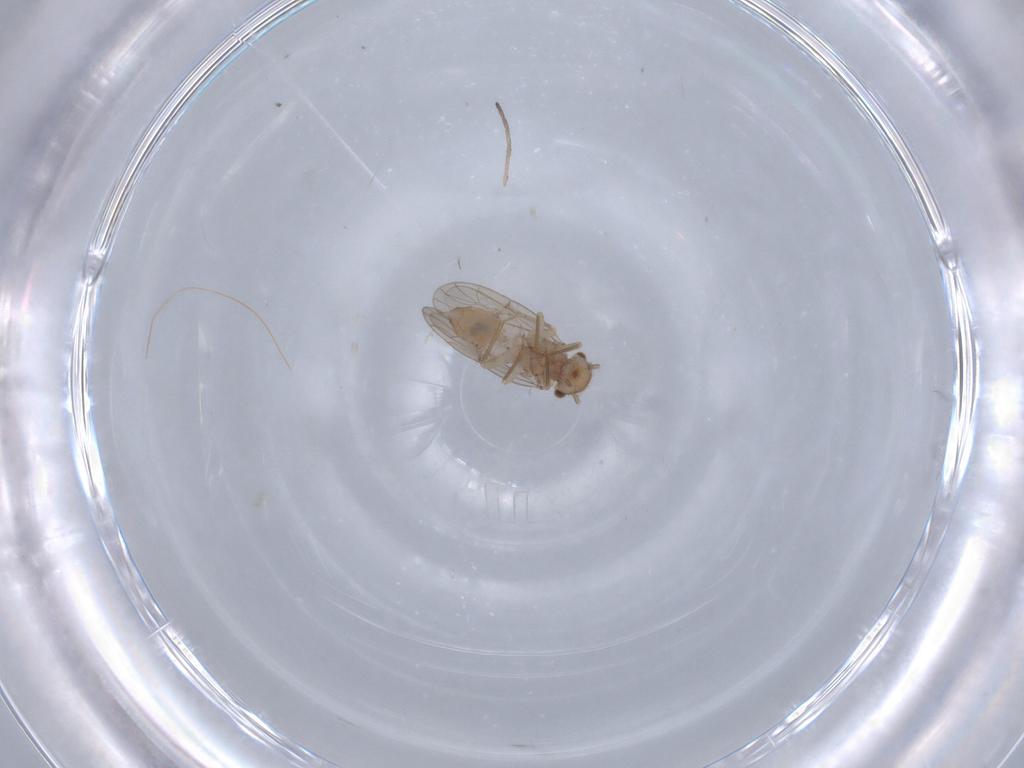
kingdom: Animalia
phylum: Arthropoda
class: Insecta
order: Psocodea
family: Ectopsocidae
